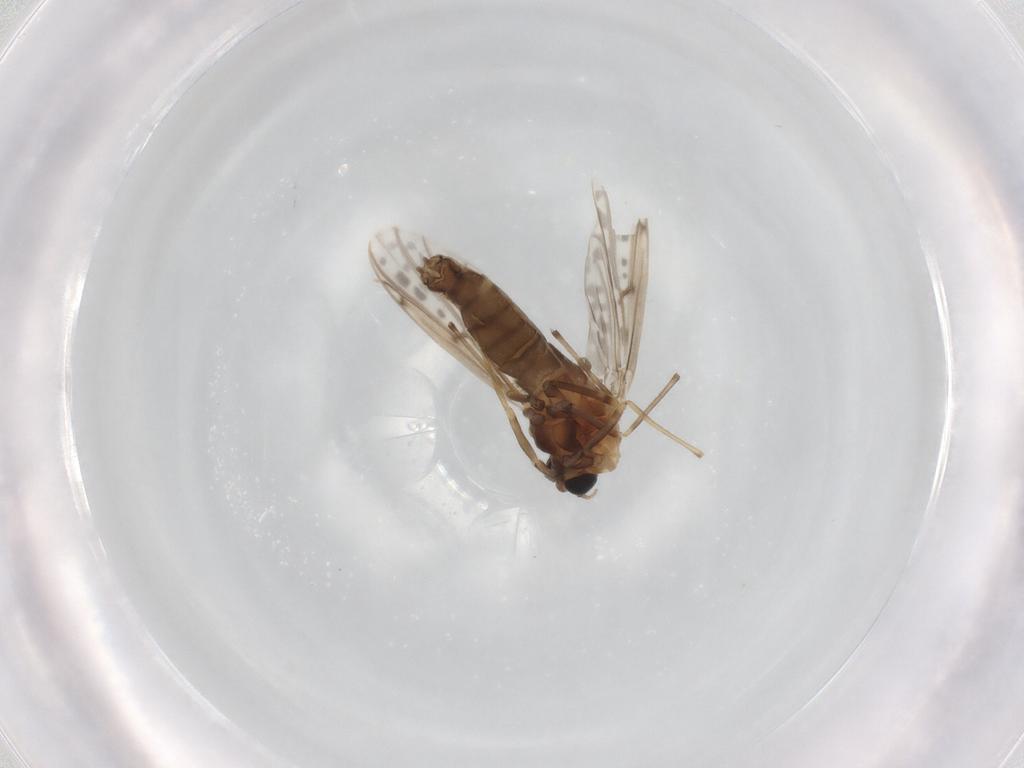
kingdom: Animalia
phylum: Arthropoda
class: Insecta
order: Diptera
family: Chironomidae
